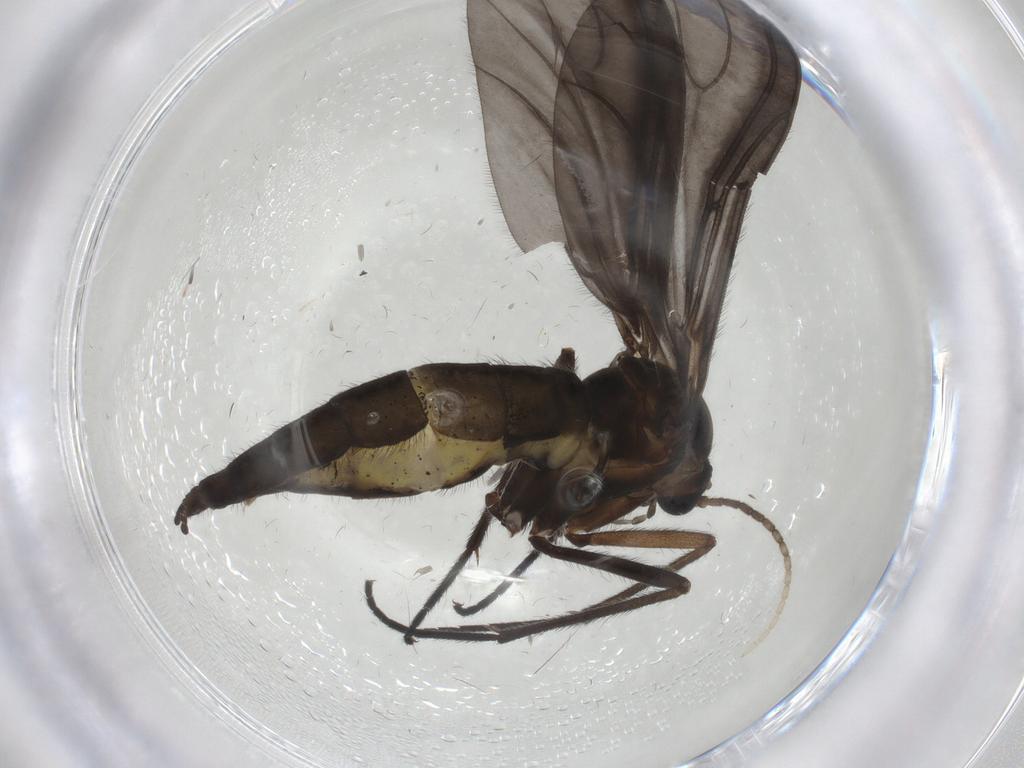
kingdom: Animalia
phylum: Arthropoda
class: Insecta
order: Diptera
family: Sciaridae
